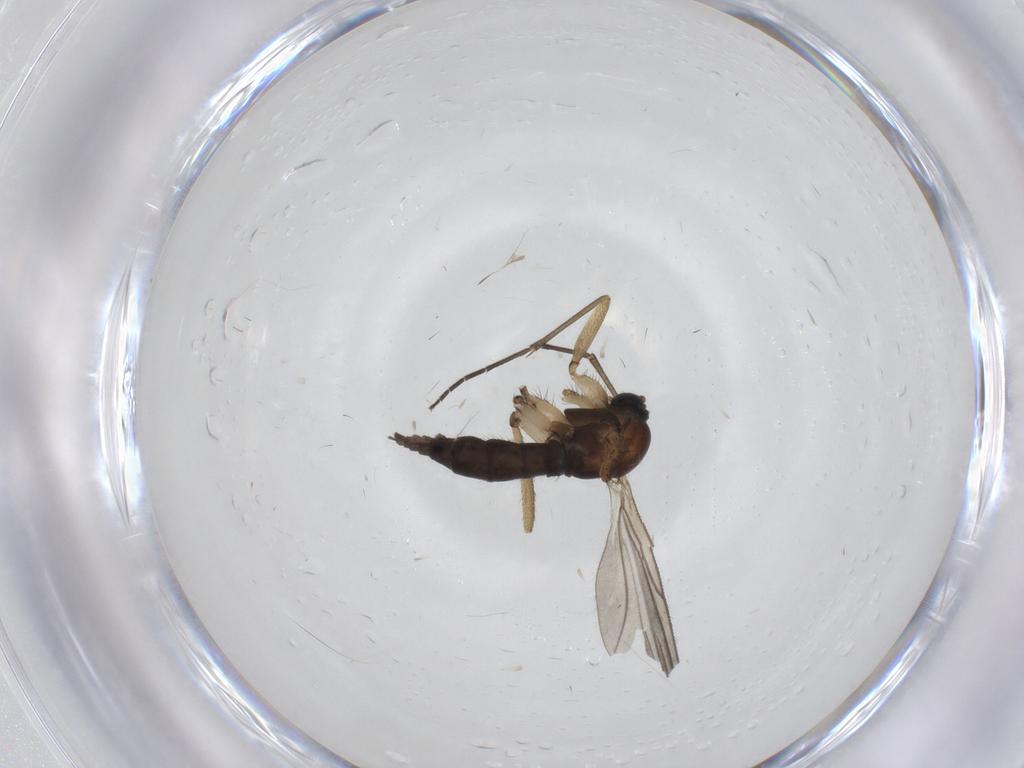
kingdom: Animalia
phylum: Arthropoda
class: Insecta
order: Diptera
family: Sciaridae
